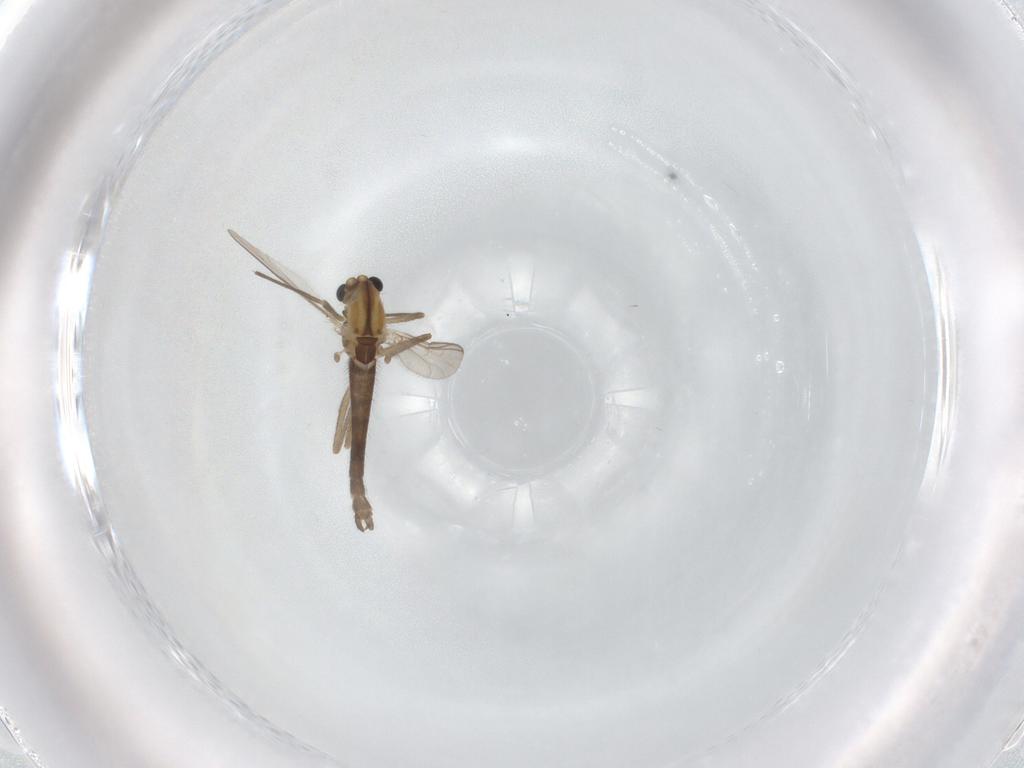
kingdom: Animalia
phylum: Arthropoda
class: Insecta
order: Diptera
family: Chironomidae
